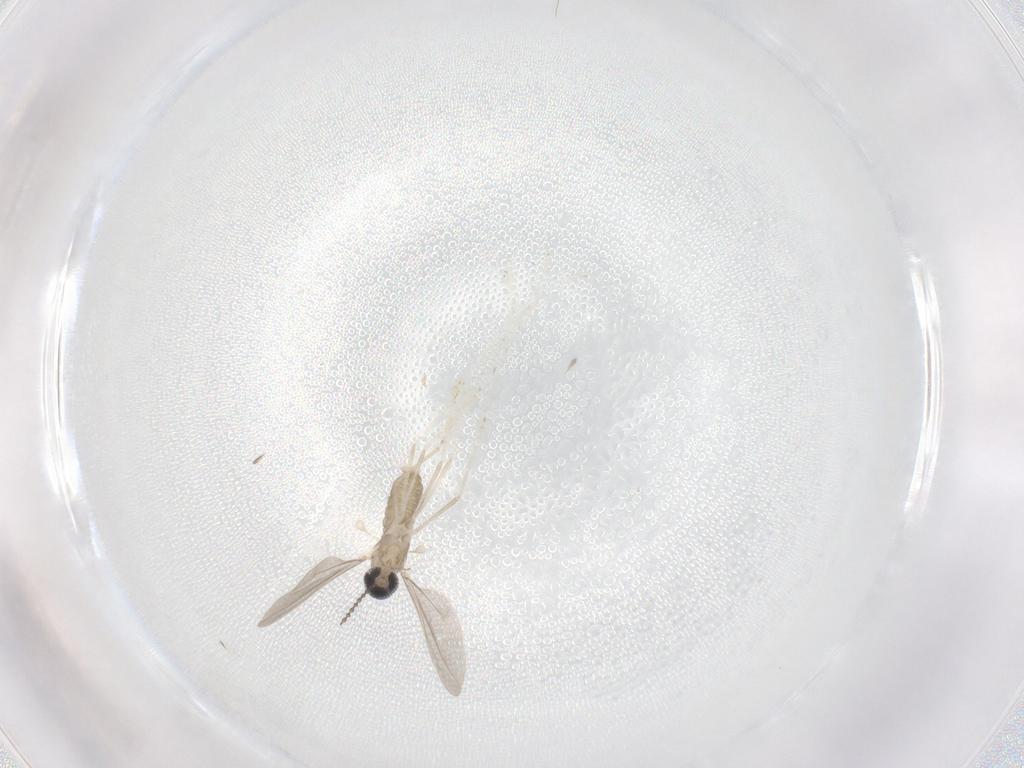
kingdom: Animalia
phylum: Arthropoda
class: Insecta
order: Diptera
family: Cecidomyiidae
